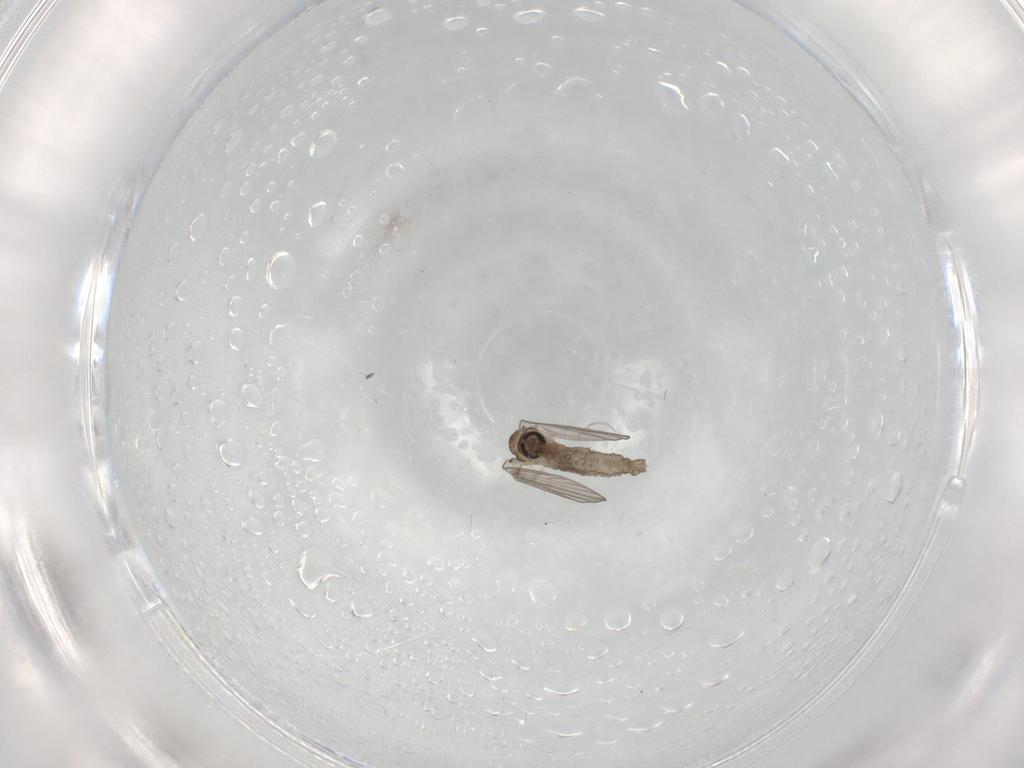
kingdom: Animalia
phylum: Arthropoda
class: Insecta
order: Diptera
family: Psychodidae
